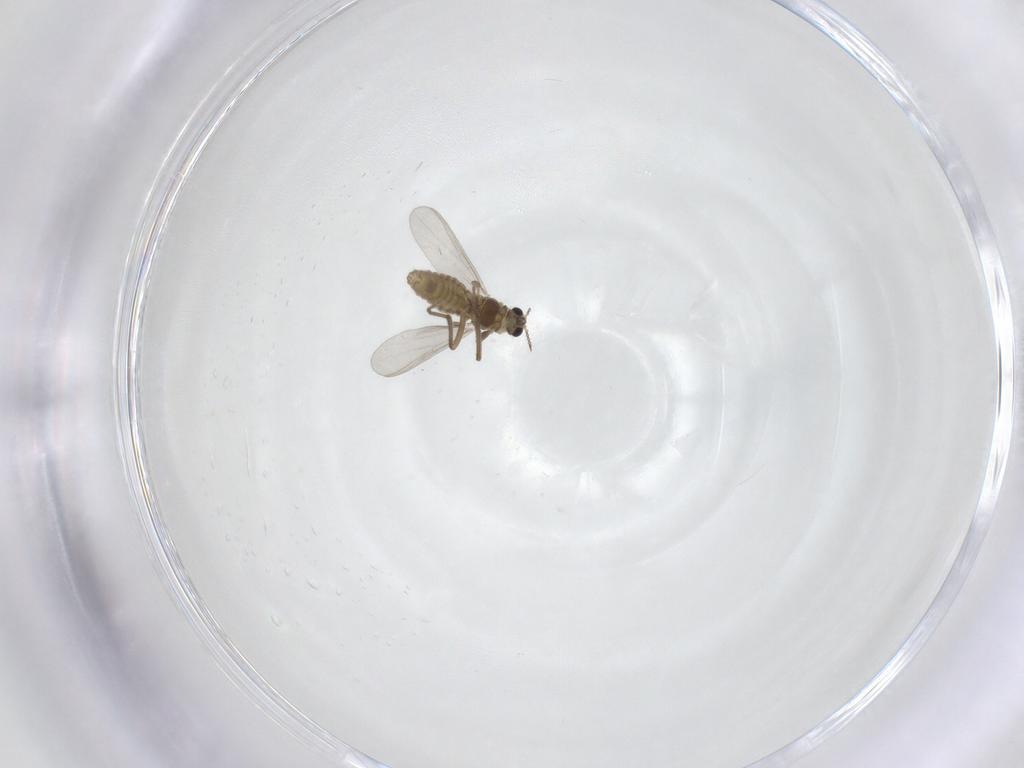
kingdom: Animalia
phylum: Arthropoda
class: Insecta
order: Diptera
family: Chironomidae
